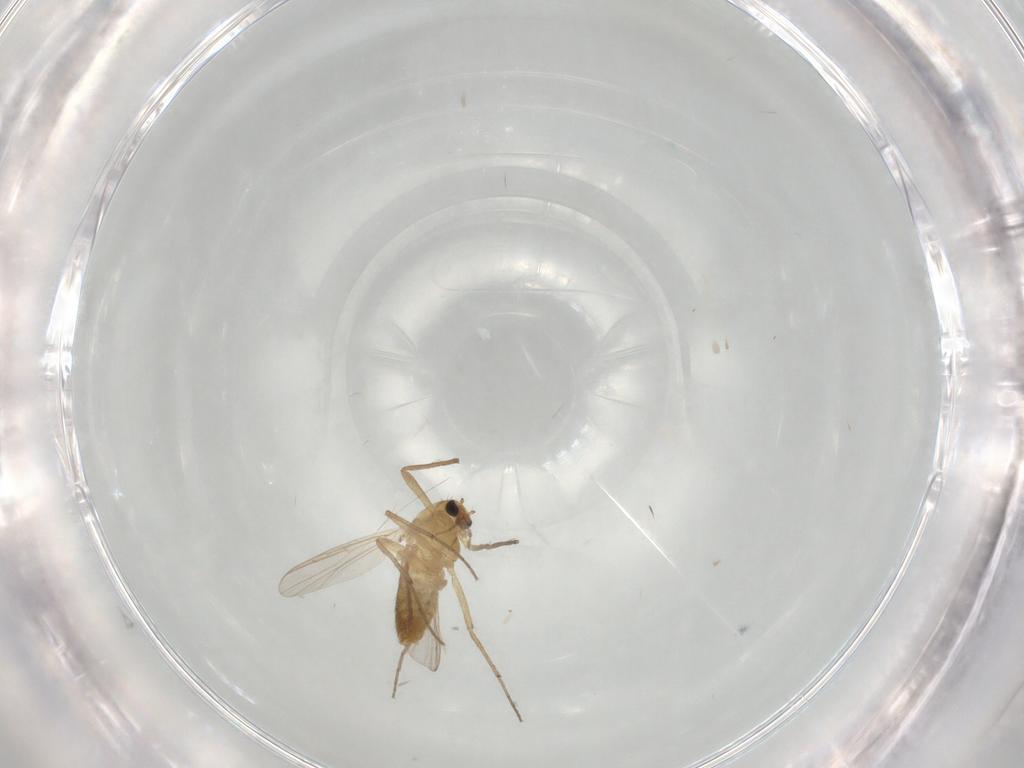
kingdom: Animalia
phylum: Arthropoda
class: Insecta
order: Diptera
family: Chironomidae
